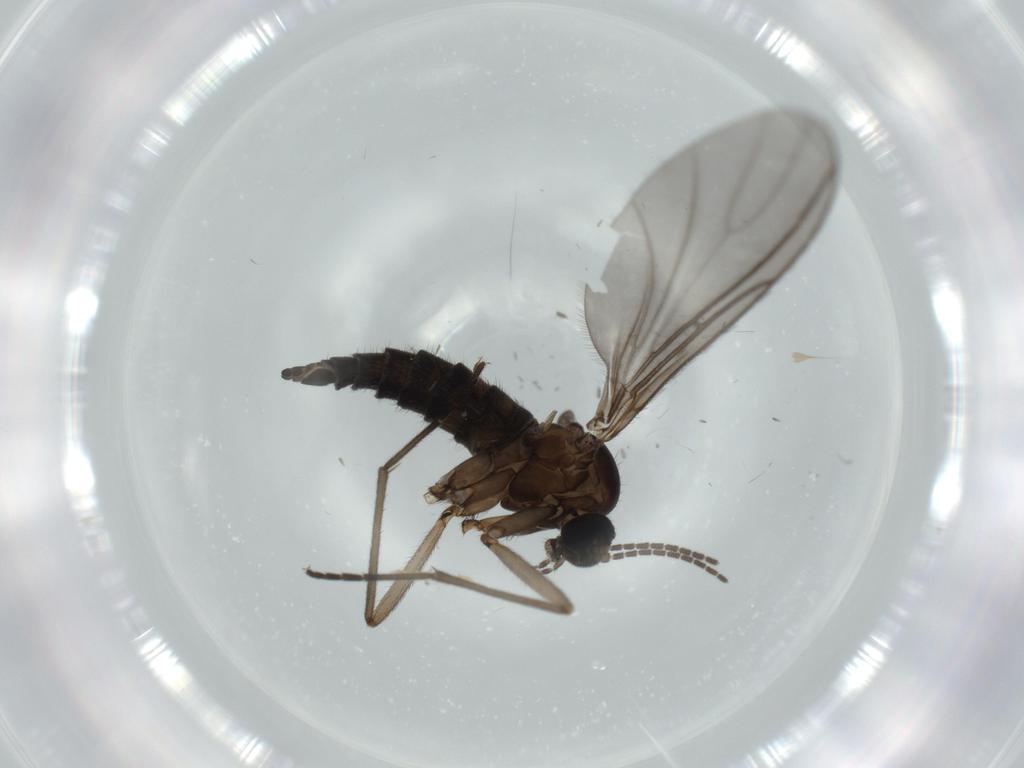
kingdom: Animalia
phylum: Arthropoda
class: Insecta
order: Diptera
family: Sciaridae
